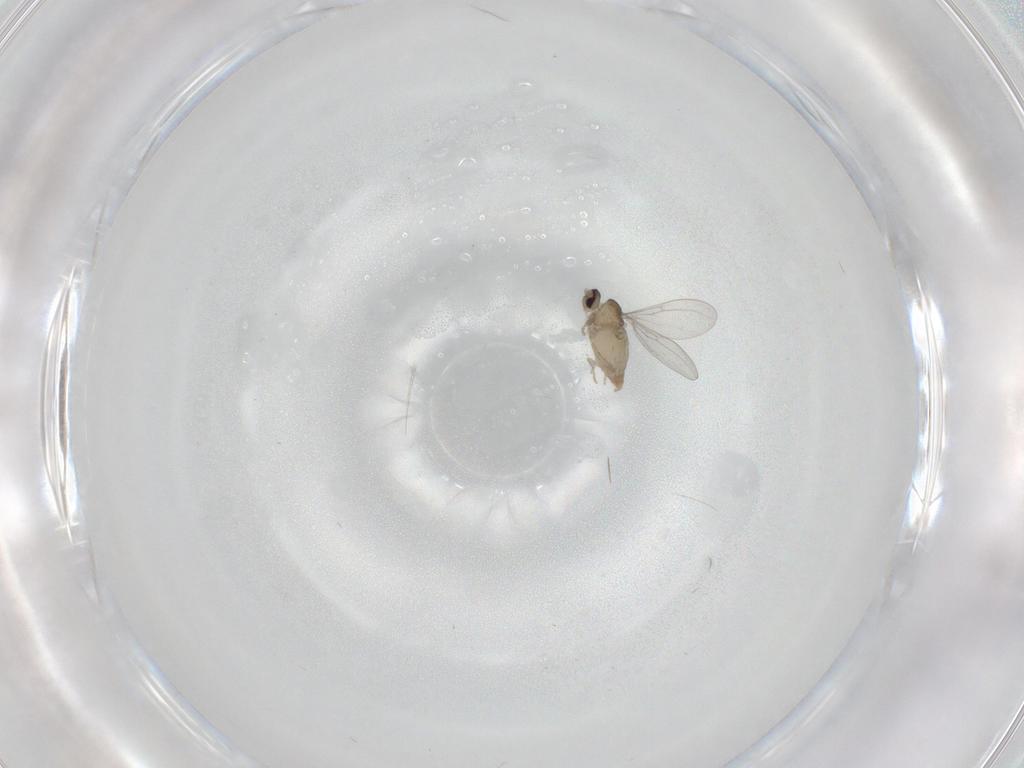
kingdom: Animalia
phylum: Arthropoda
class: Insecta
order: Diptera
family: Cecidomyiidae
